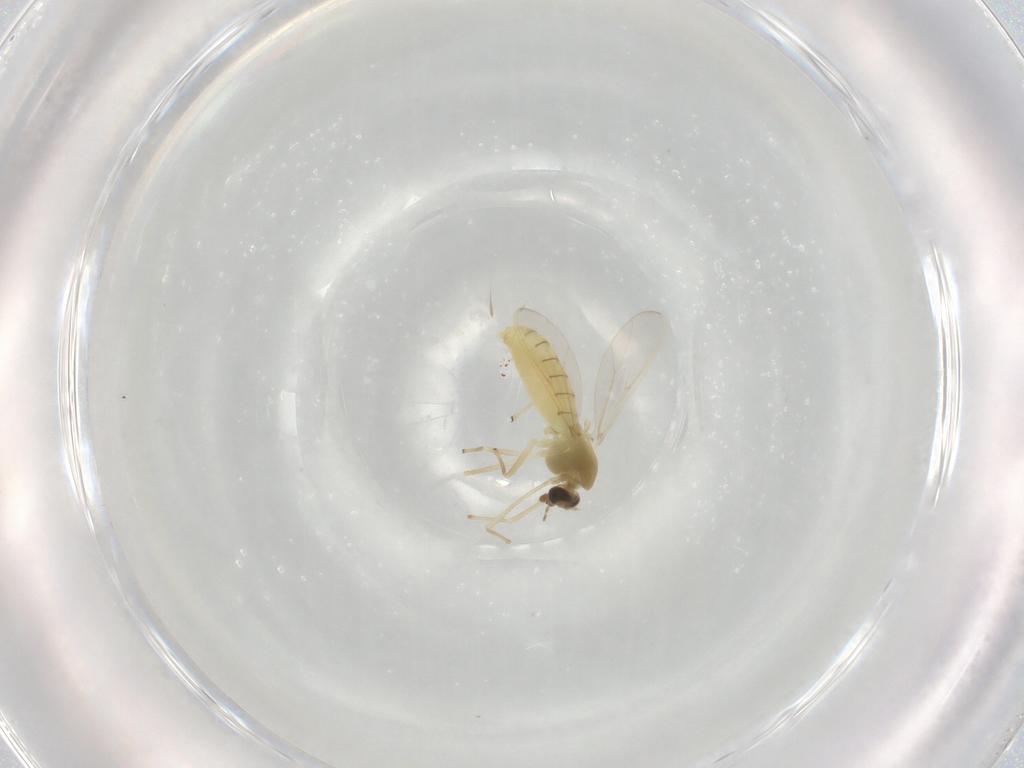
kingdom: Animalia
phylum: Arthropoda
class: Insecta
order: Diptera
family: Chironomidae
